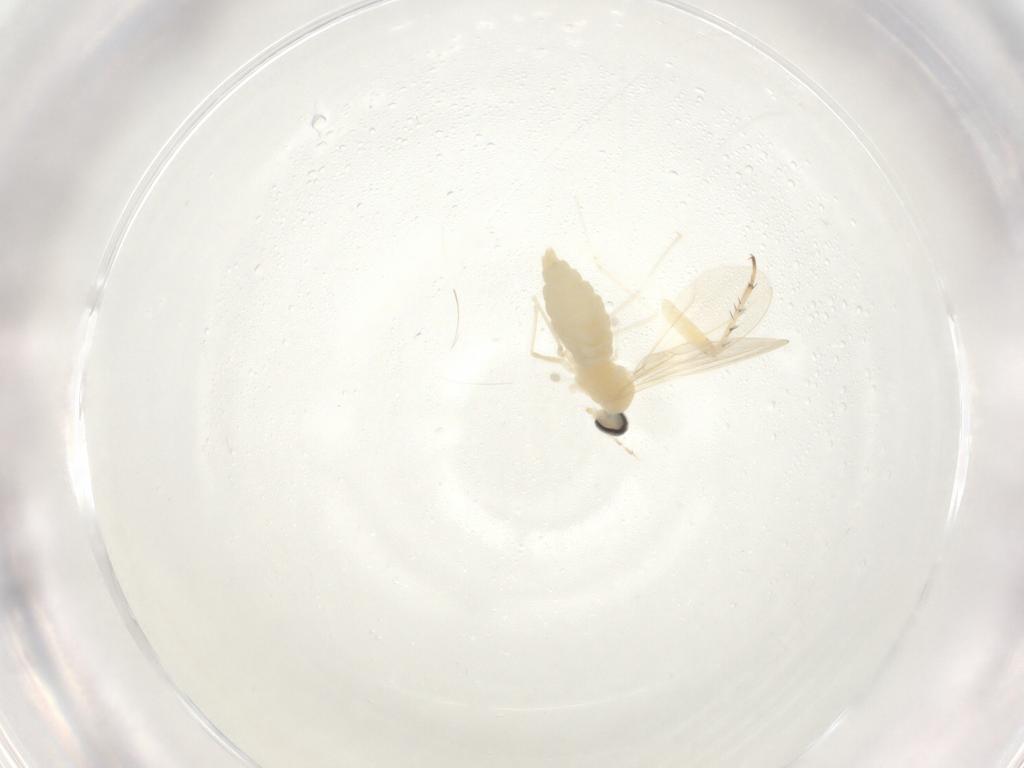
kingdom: Animalia
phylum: Arthropoda
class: Insecta
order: Diptera
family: Cecidomyiidae
